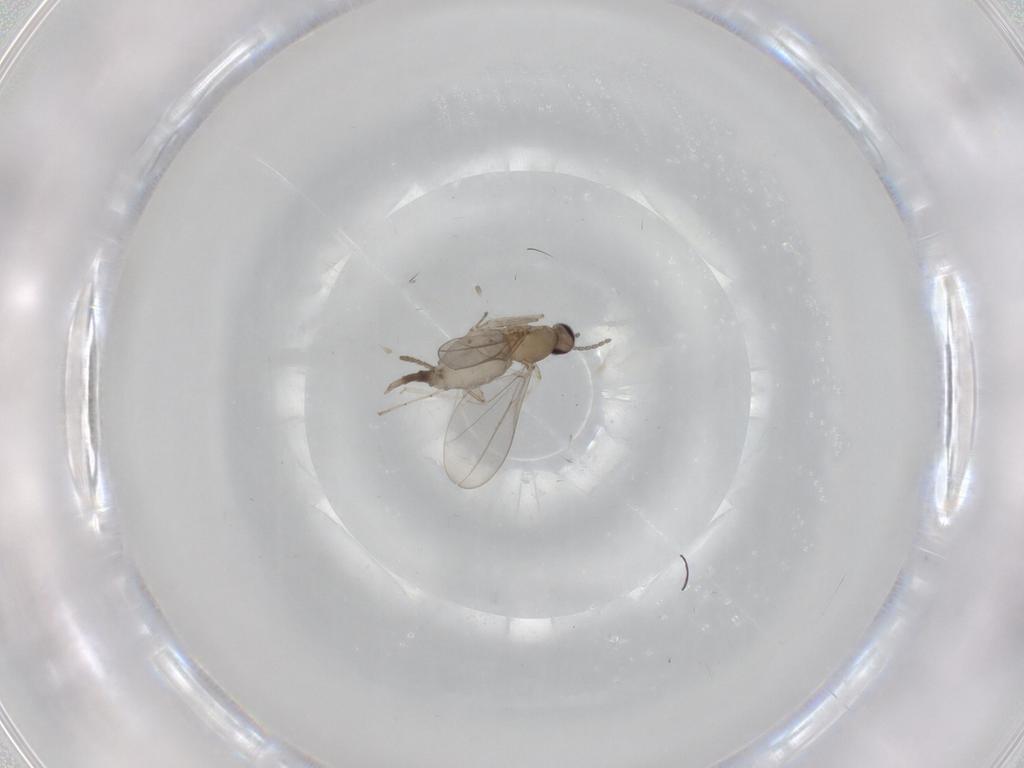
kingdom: Animalia
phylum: Arthropoda
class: Insecta
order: Diptera
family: Cecidomyiidae
